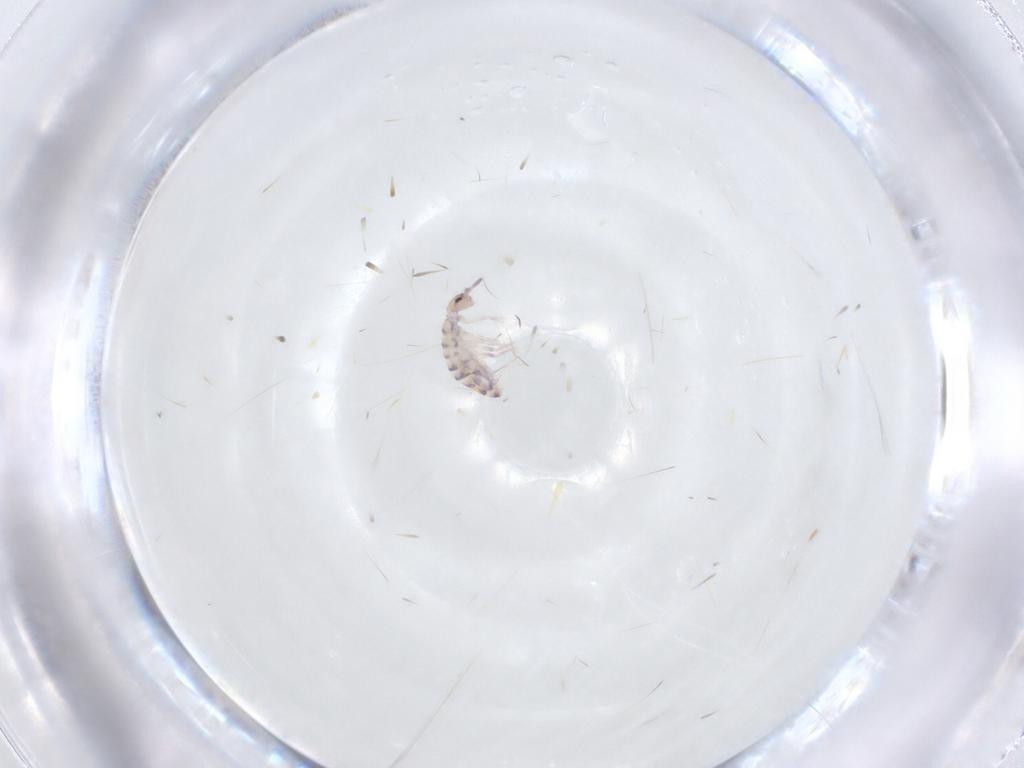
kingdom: Animalia
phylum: Arthropoda
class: Collembola
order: Entomobryomorpha
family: Entomobryidae
